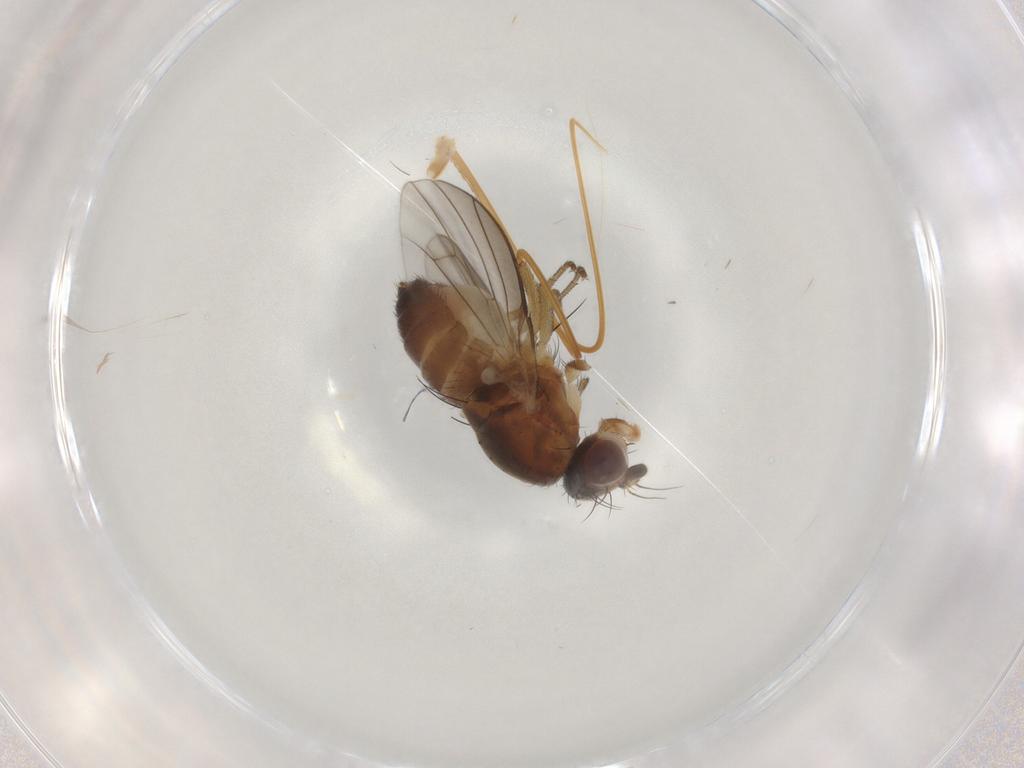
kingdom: Animalia
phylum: Arthropoda
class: Insecta
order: Diptera
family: Heleomyzidae
